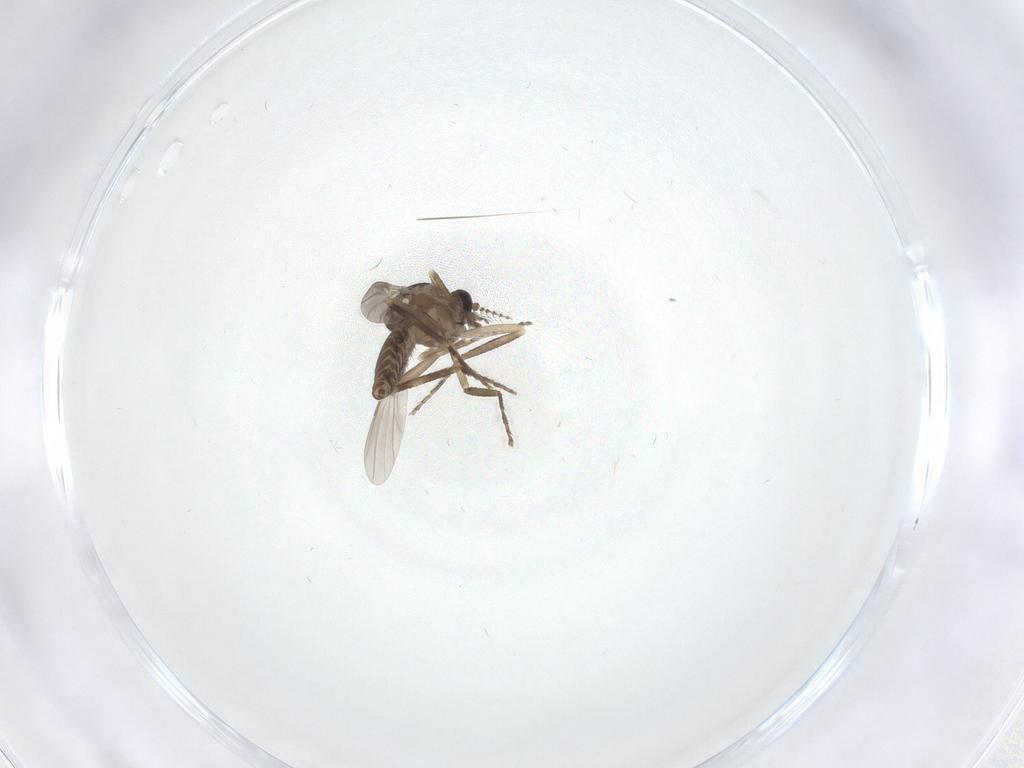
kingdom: Animalia
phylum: Arthropoda
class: Insecta
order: Diptera
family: Ceratopogonidae
